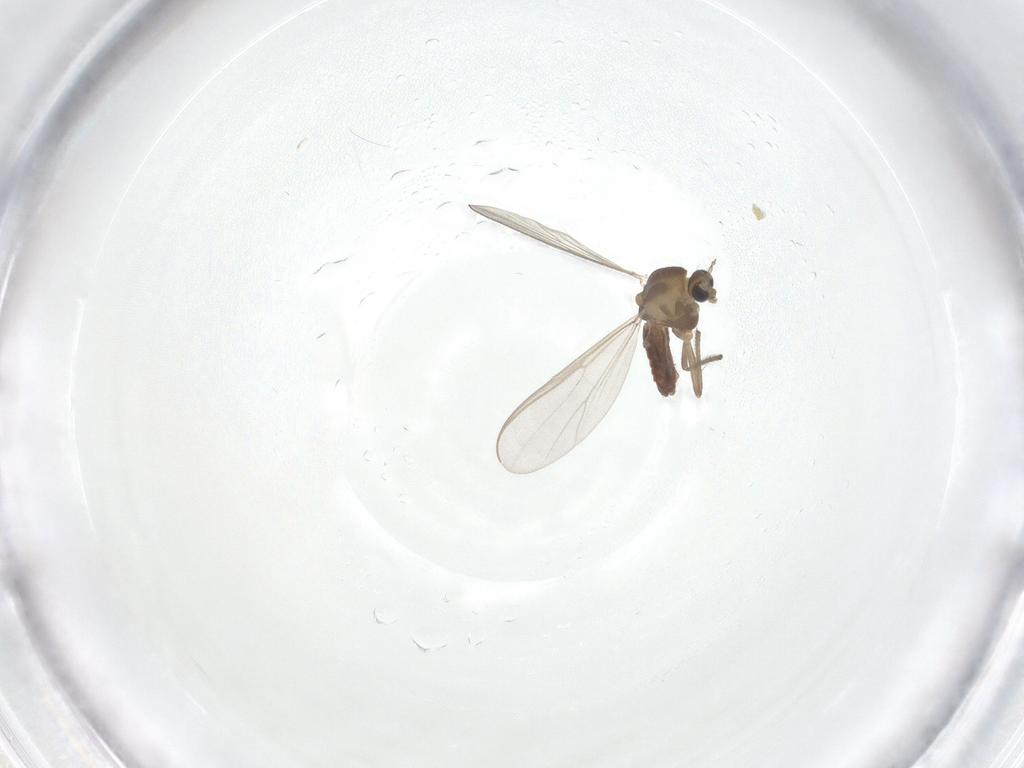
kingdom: Animalia
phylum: Arthropoda
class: Insecta
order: Diptera
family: Chironomidae
